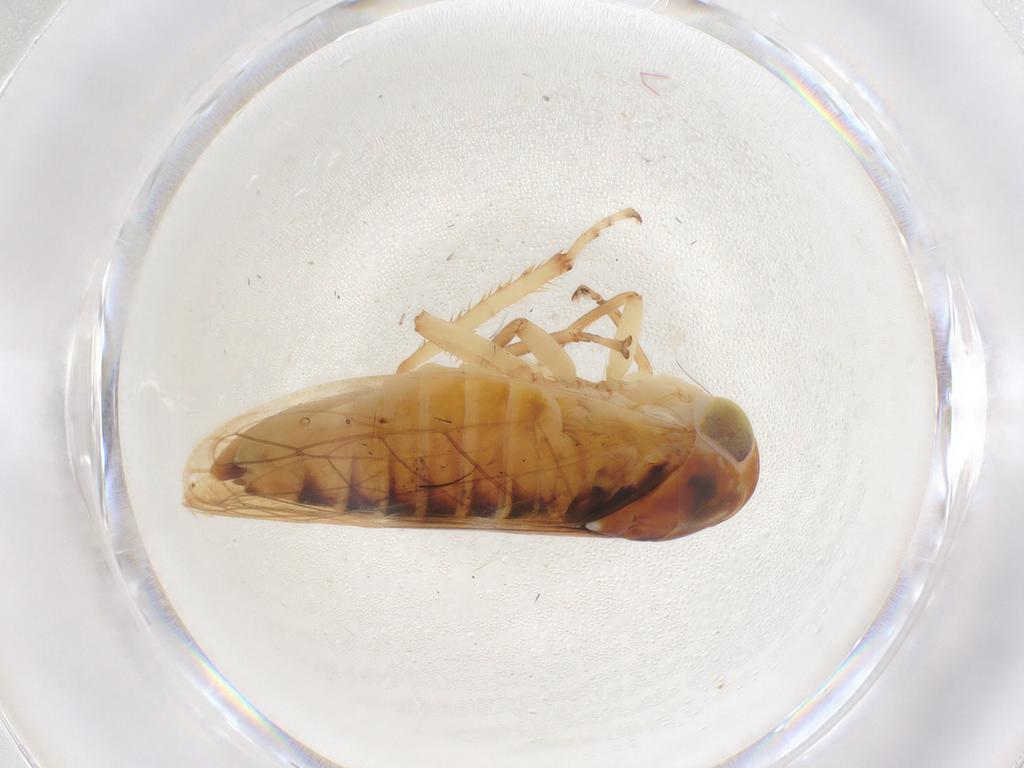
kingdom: Animalia
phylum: Arthropoda
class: Insecta
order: Hemiptera
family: Cicadellidae
